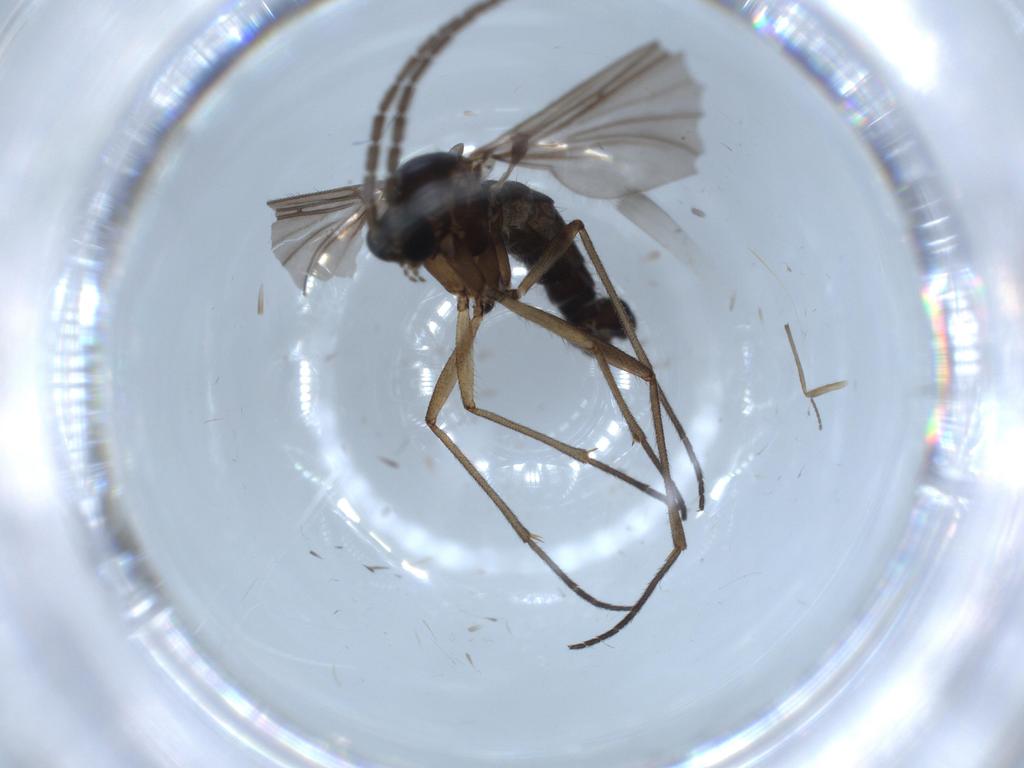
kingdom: Animalia
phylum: Arthropoda
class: Insecta
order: Diptera
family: Sciaridae
